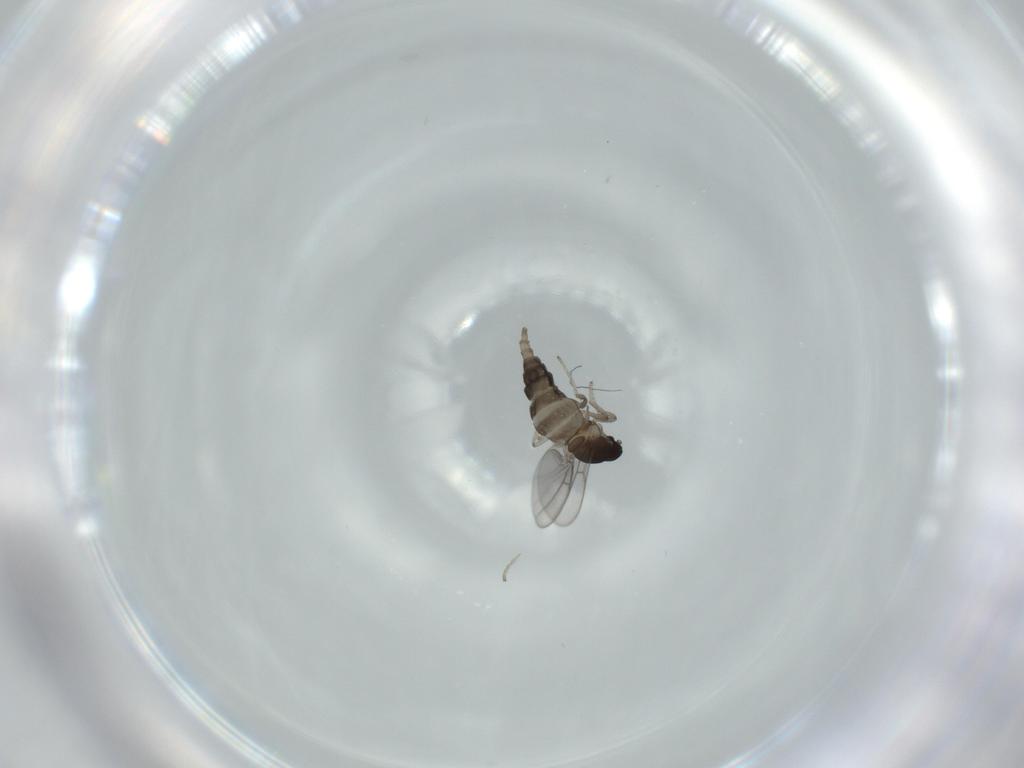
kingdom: Animalia
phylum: Arthropoda
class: Insecta
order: Diptera
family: Cecidomyiidae
